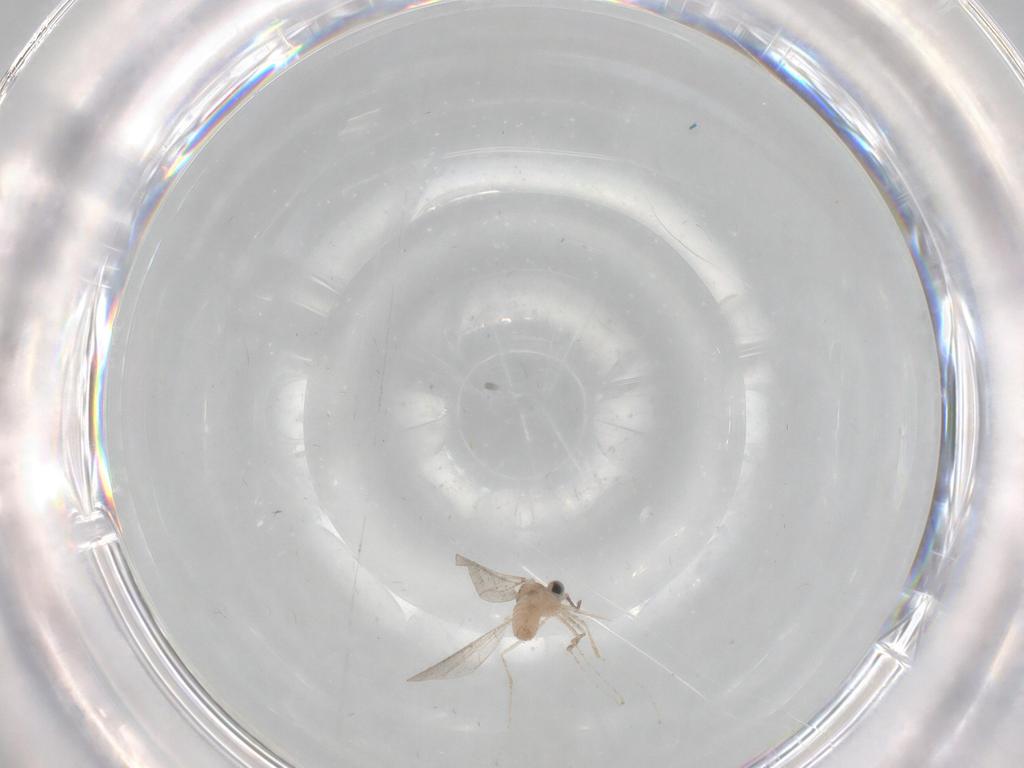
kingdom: Animalia
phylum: Arthropoda
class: Insecta
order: Diptera
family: Cecidomyiidae
